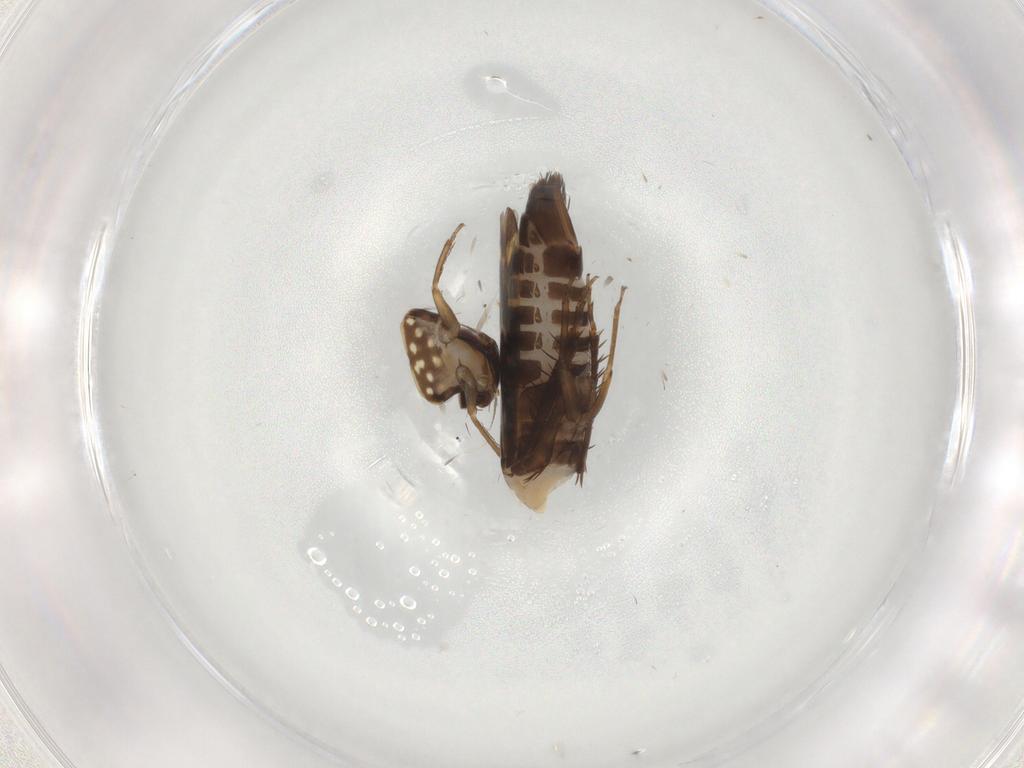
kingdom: Animalia
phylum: Arthropoda
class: Insecta
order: Hemiptera
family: Cicadellidae
